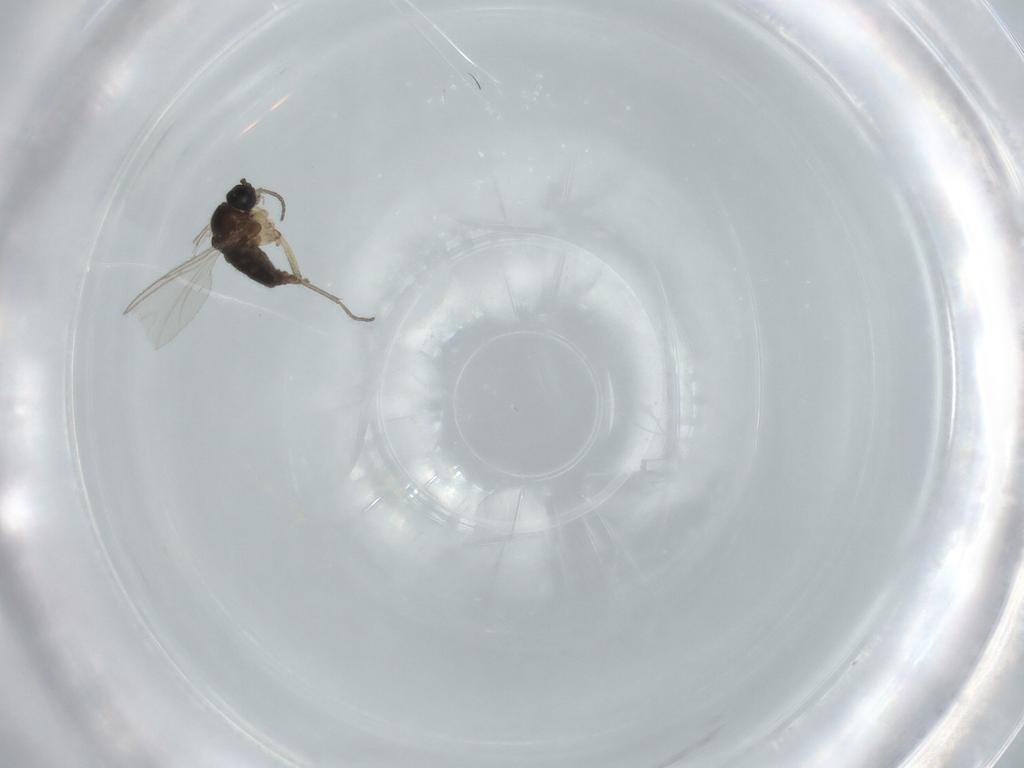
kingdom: Animalia
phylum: Arthropoda
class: Insecta
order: Diptera
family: Sciaridae
